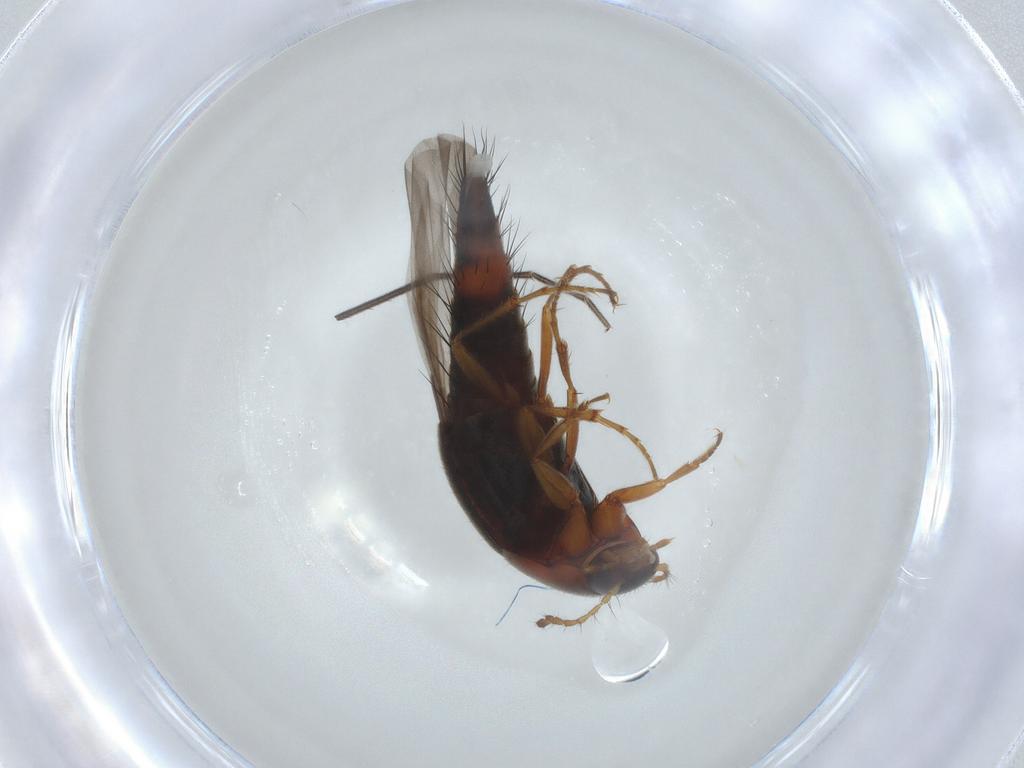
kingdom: Animalia
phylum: Arthropoda
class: Insecta
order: Coleoptera
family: Staphylinidae
